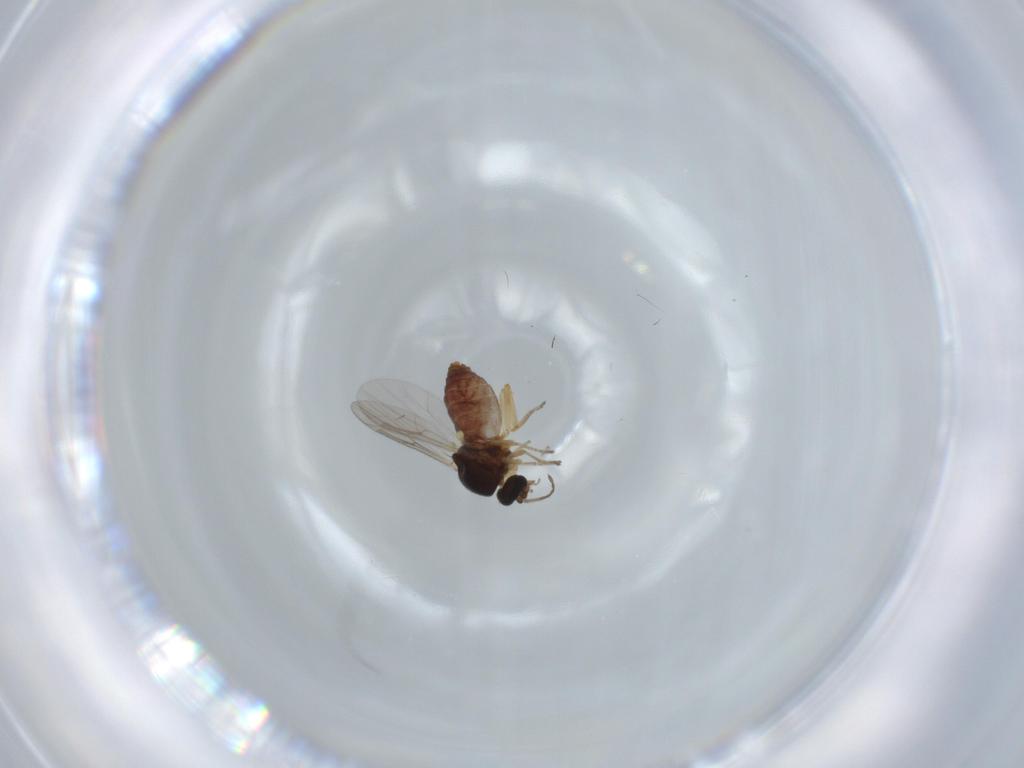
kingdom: Animalia
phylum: Arthropoda
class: Insecta
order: Diptera
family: Ceratopogonidae
